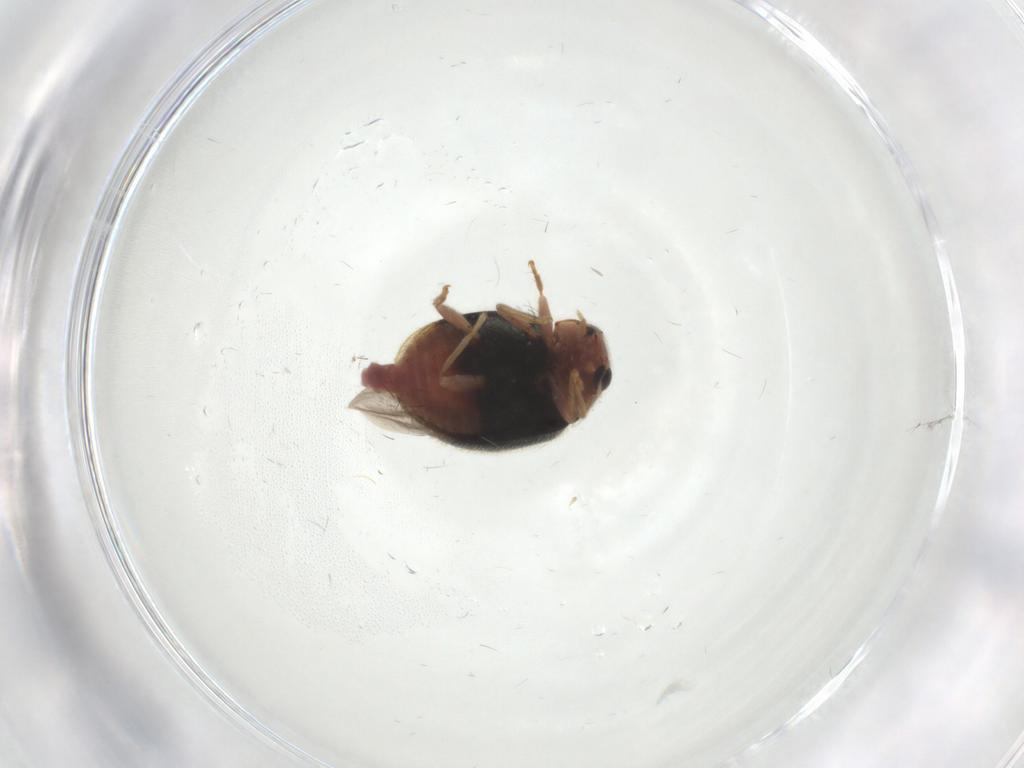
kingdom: Animalia
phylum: Arthropoda
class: Insecta
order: Coleoptera
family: Coccinellidae
